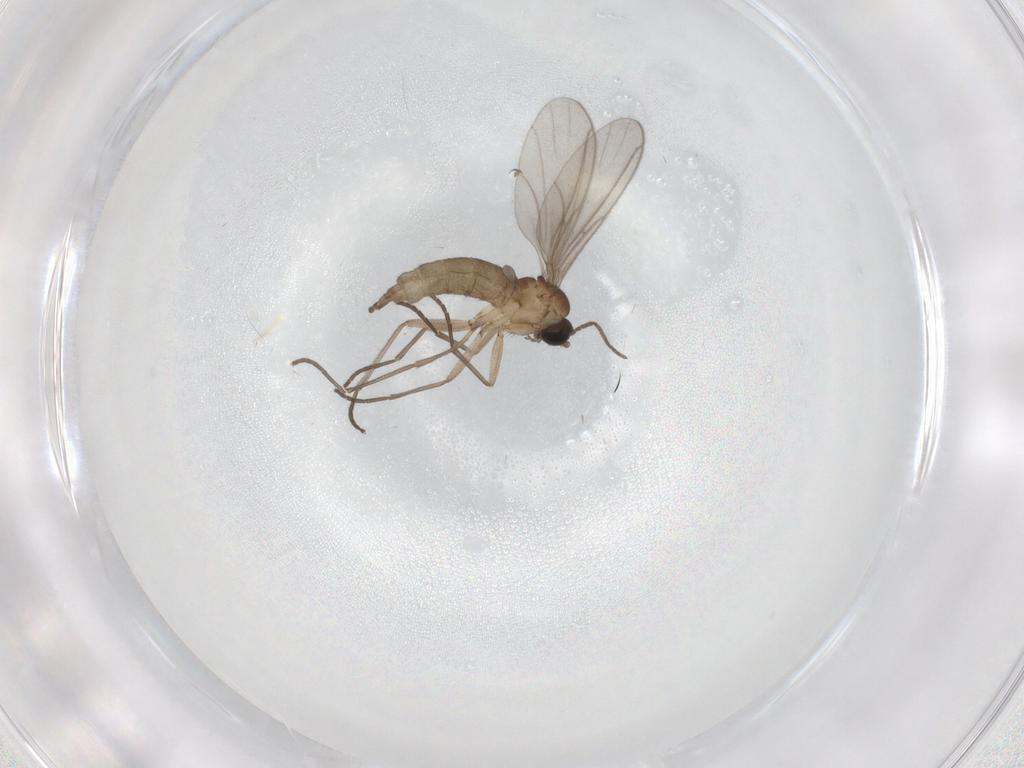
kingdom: Animalia
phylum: Arthropoda
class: Insecta
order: Diptera
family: Sciaridae
